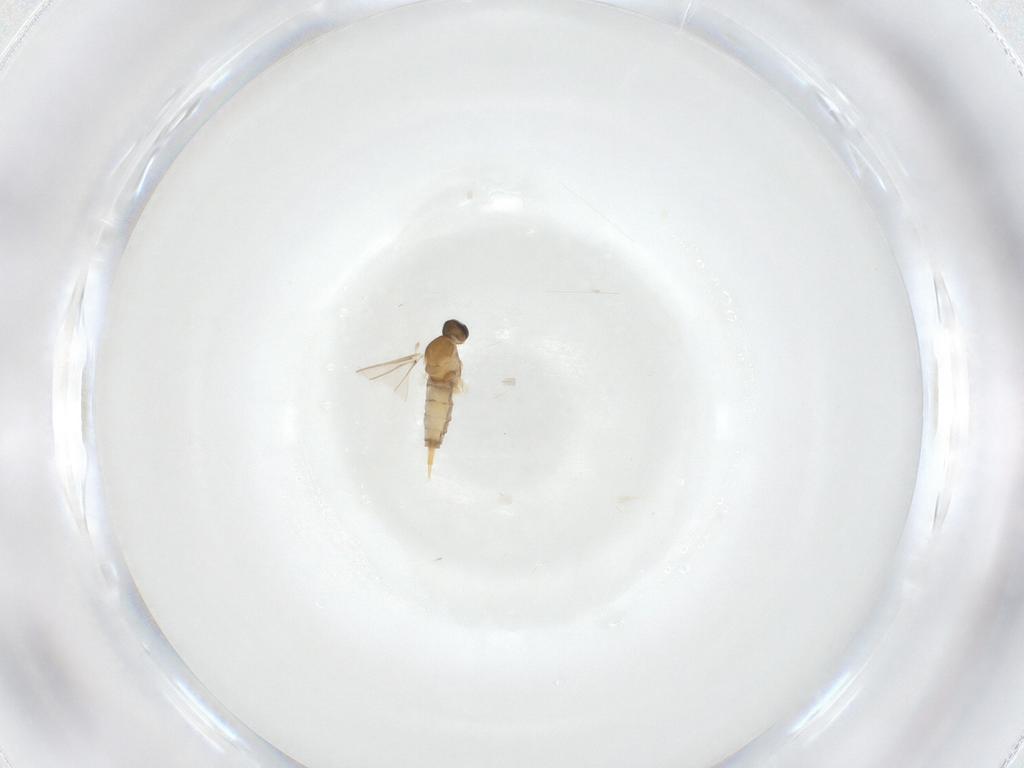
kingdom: Animalia
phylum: Arthropoda
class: Insecta
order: Diptera
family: Cecidomyiidae
